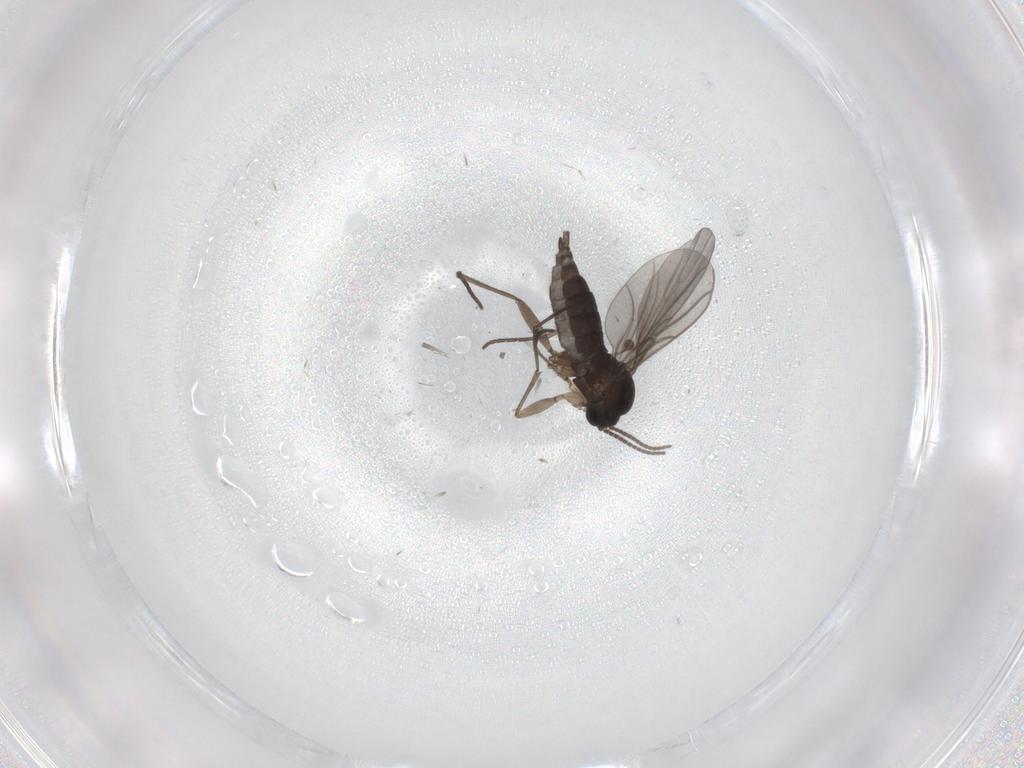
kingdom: Animalia
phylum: Arthropoda
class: Insecta
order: Diptera
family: Sciaridae
